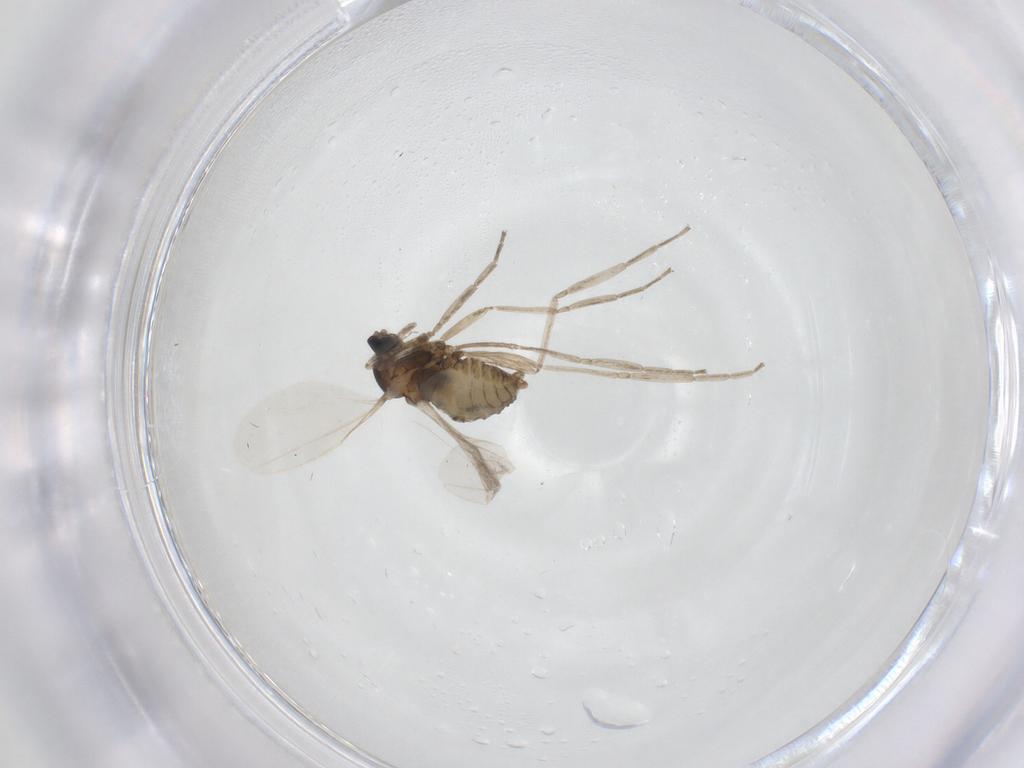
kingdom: Animalia
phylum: Arthropoda
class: Insecta
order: Diptera
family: Cecidomyiidae
